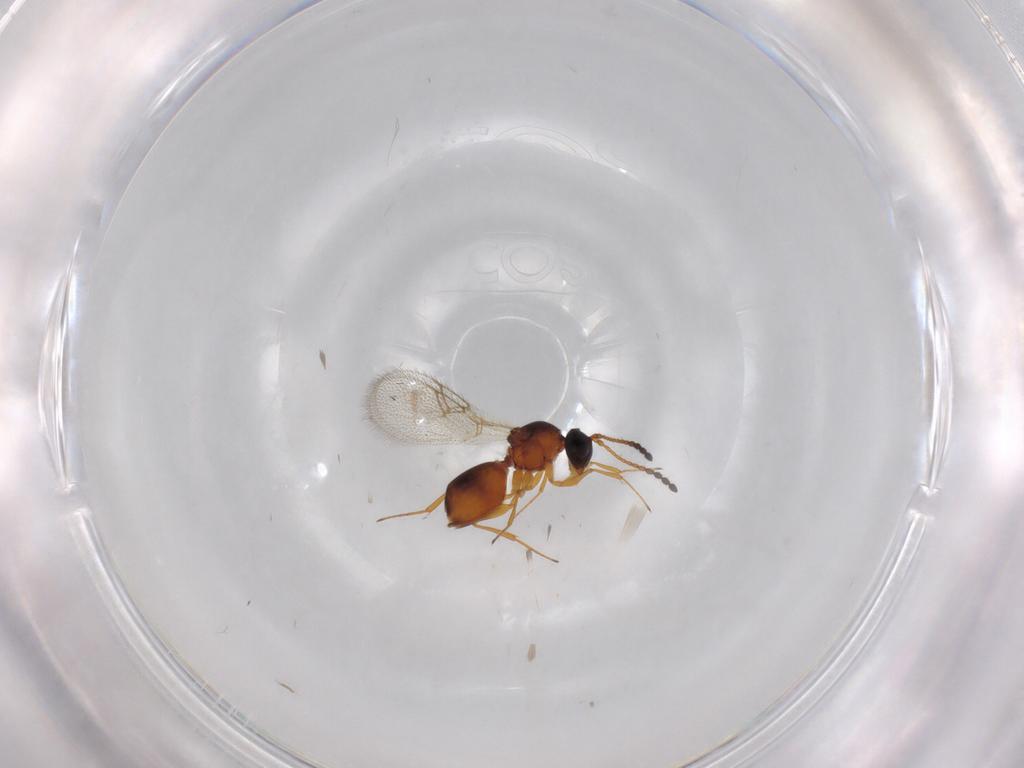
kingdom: Animalia
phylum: Arthropoda
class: Insecta
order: Hymenoptera
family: Figitidae
